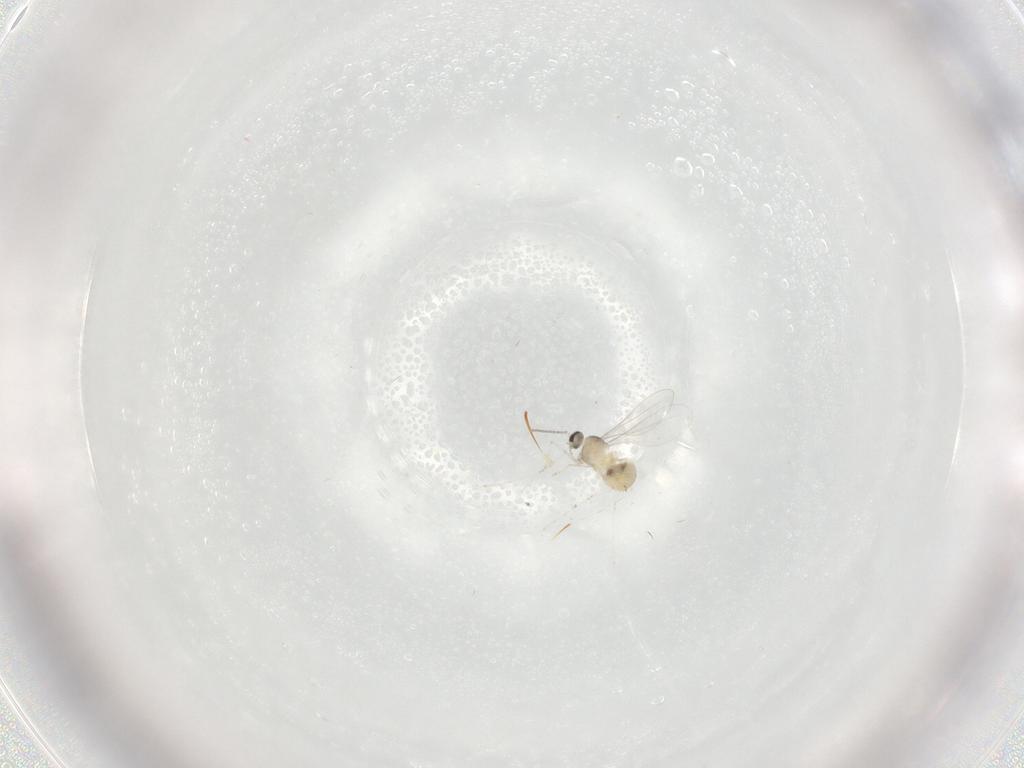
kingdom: Animalia
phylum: Arthropoda
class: Insecta
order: Diptera
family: Cecidomyiidae
